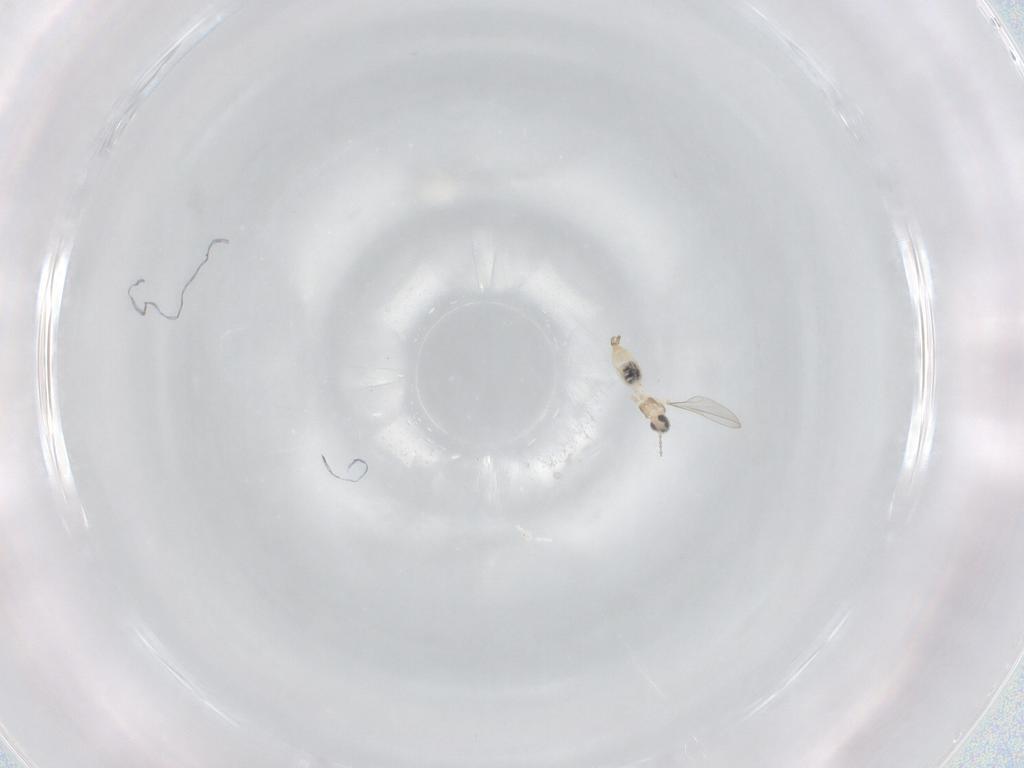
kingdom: Animalia
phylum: Arthropoda
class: Insecta
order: Diptera
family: Cecidomyiidae
